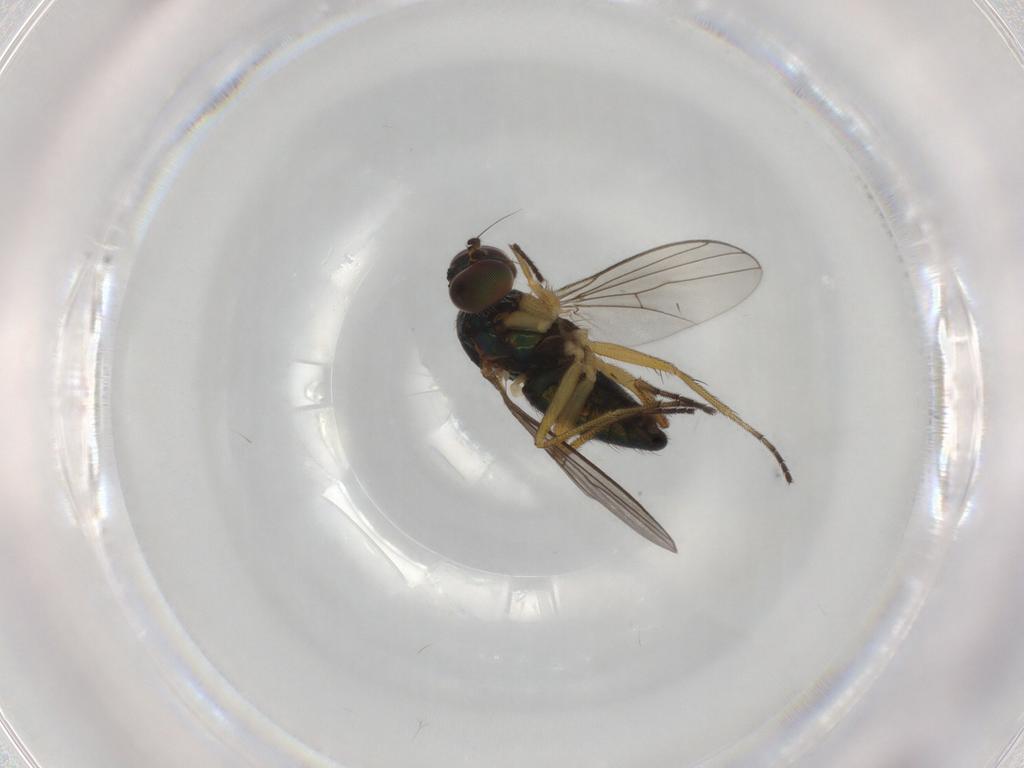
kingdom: Animalia
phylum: Arthropoda
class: Insecta
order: Diptera
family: Dolichopodidae
